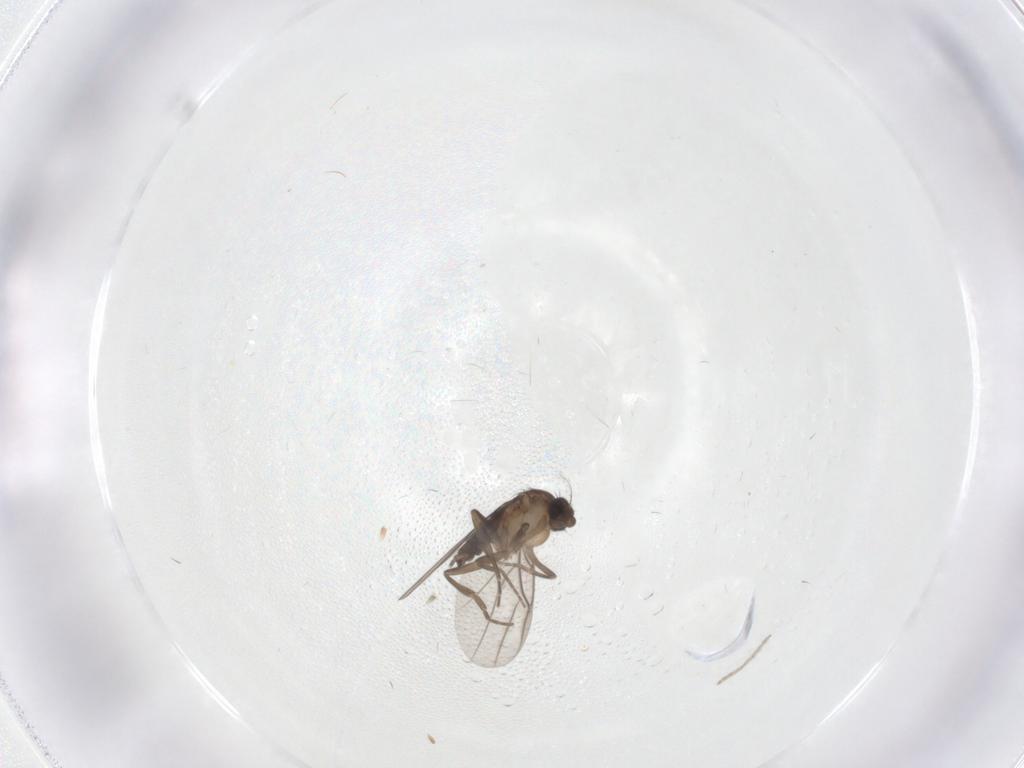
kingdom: Animalia
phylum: Arthropoda
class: Insecta
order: Diptera
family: Phoridae
